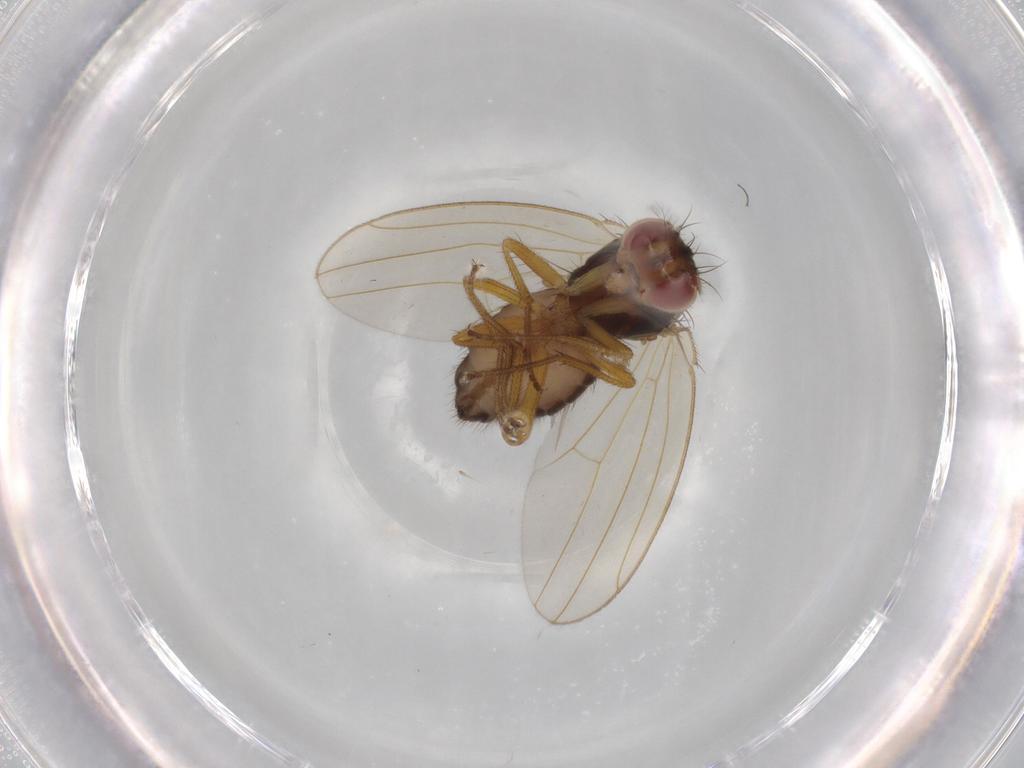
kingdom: Animalia
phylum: Arthropoda
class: Insecta
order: Diptera
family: Drosophilidae
